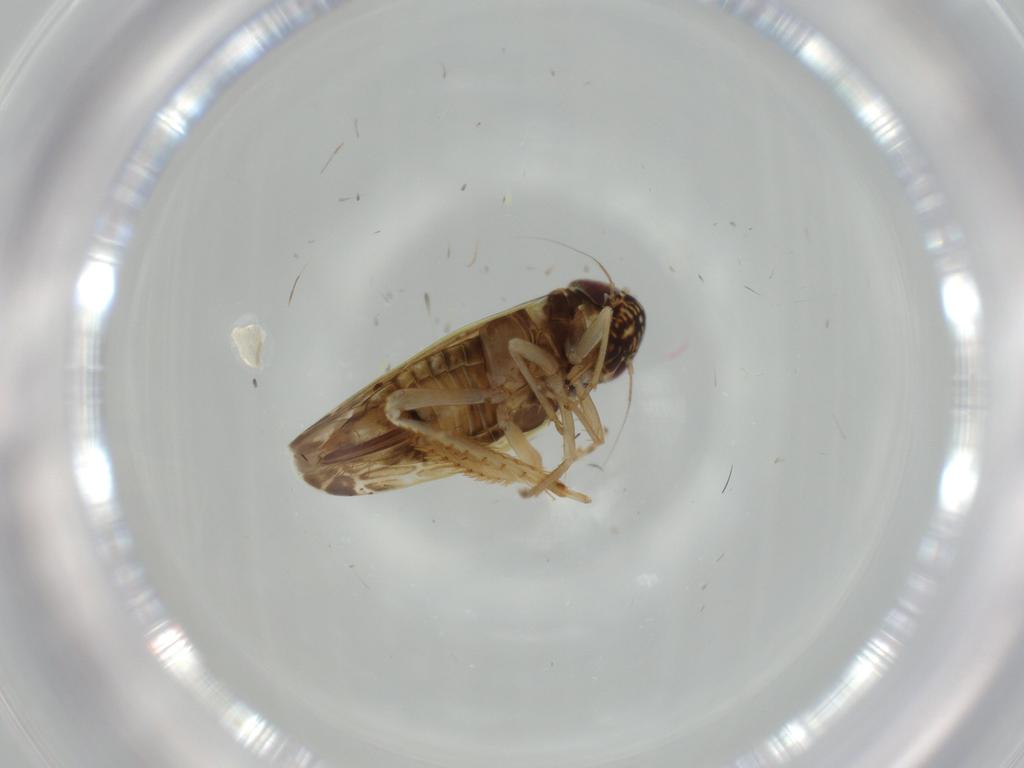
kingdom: Animalia
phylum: Arthropoda
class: Insecta
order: Hemiptera
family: Cicadellidae
